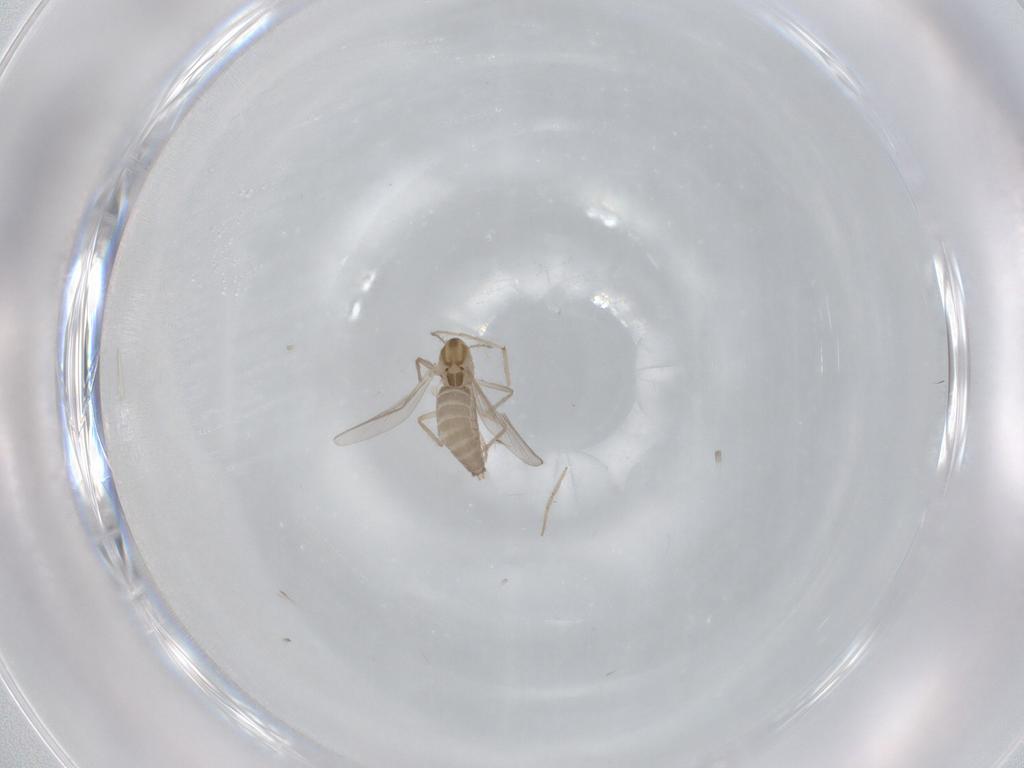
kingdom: Animalia
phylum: Arthropoda
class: Insecta
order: Diptera
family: Chironomidae
